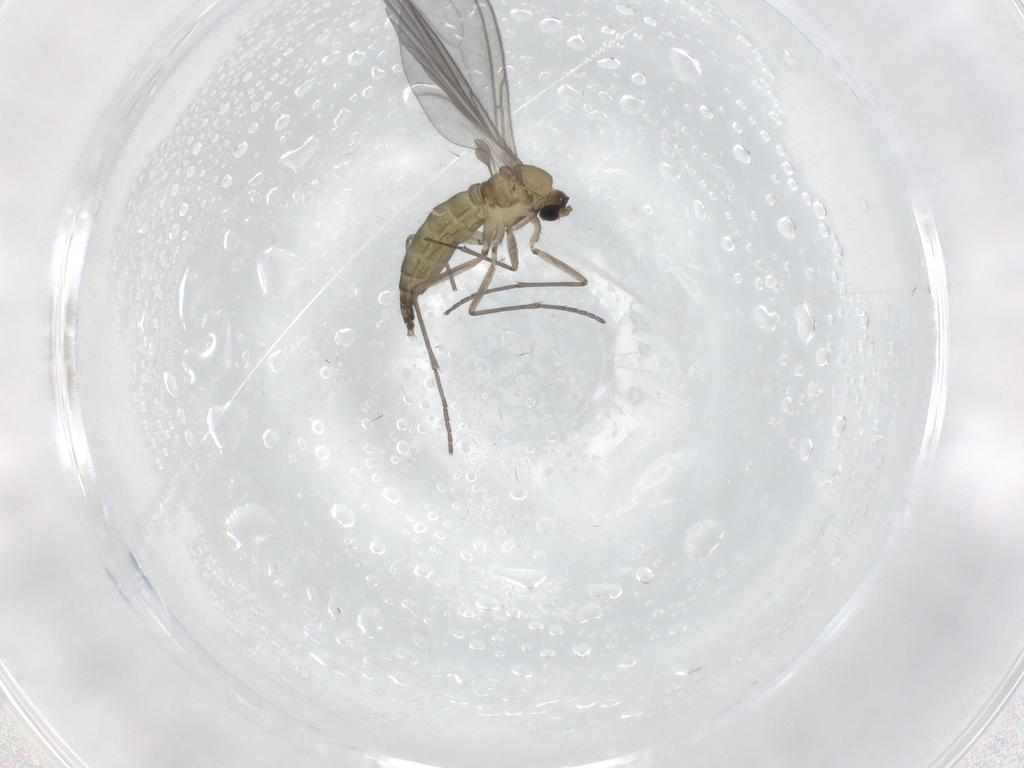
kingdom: Animalia
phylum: Arthropoda
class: Insecta
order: Diptera
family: Sciaridae
